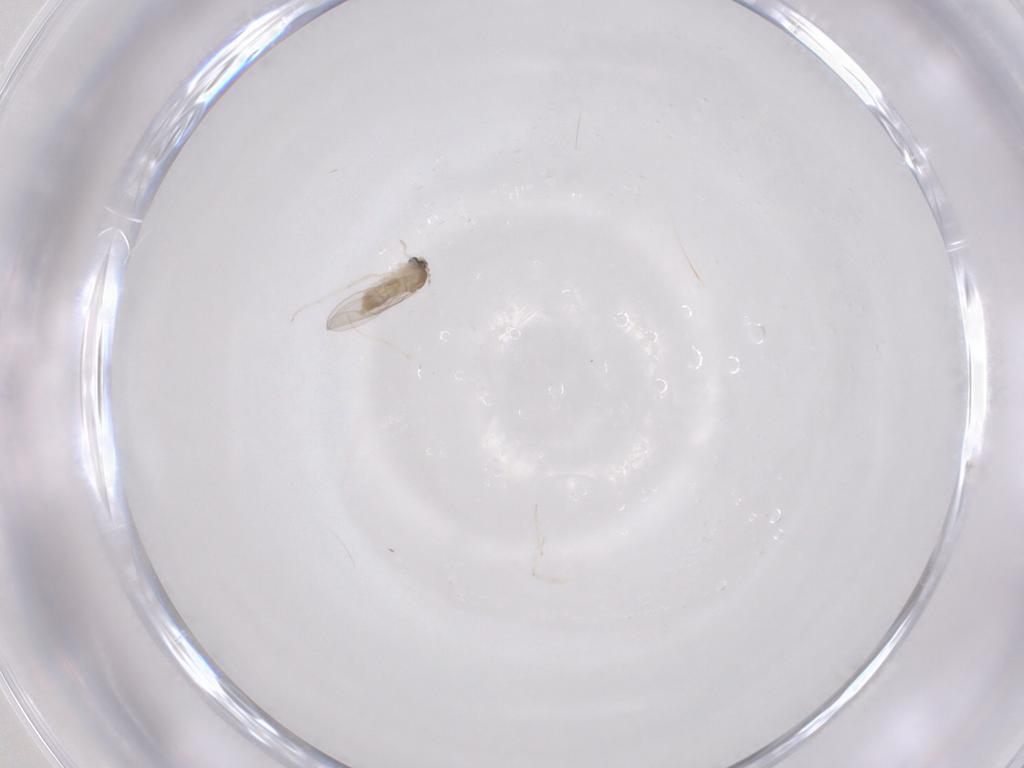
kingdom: Animalia
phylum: Arthropoda
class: Insecta
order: Diptera
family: Cecidomyiidae
